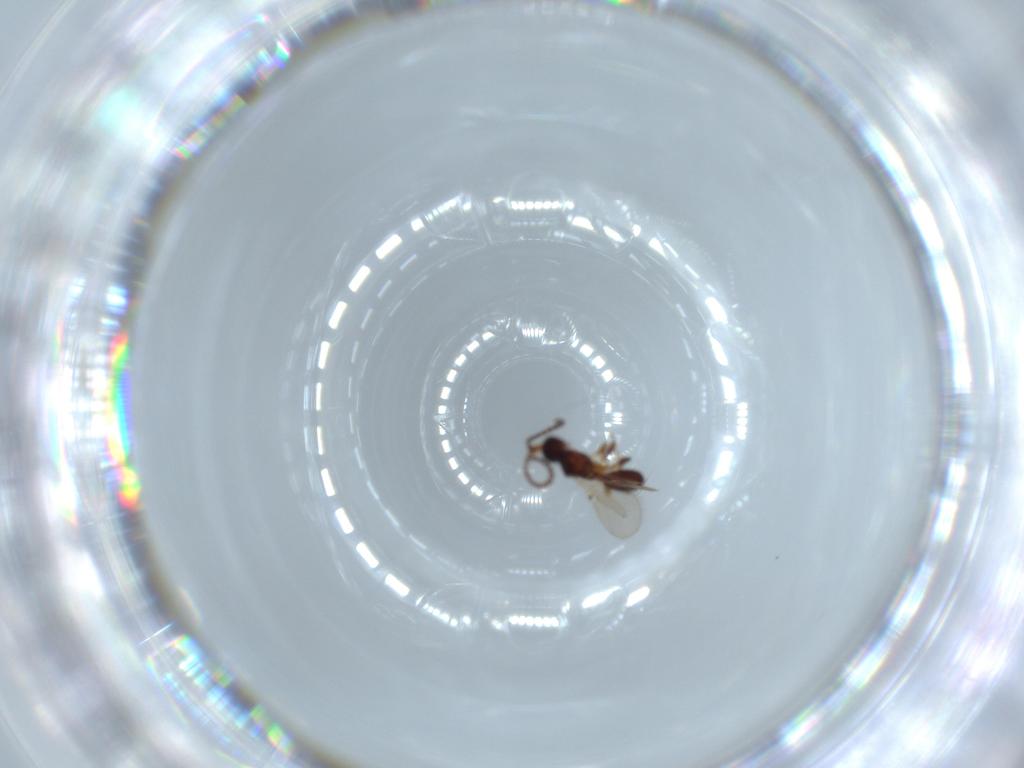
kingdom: Animalia
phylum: Arthropoda
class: Insecta
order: Hymenoptera
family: Diapriidae
